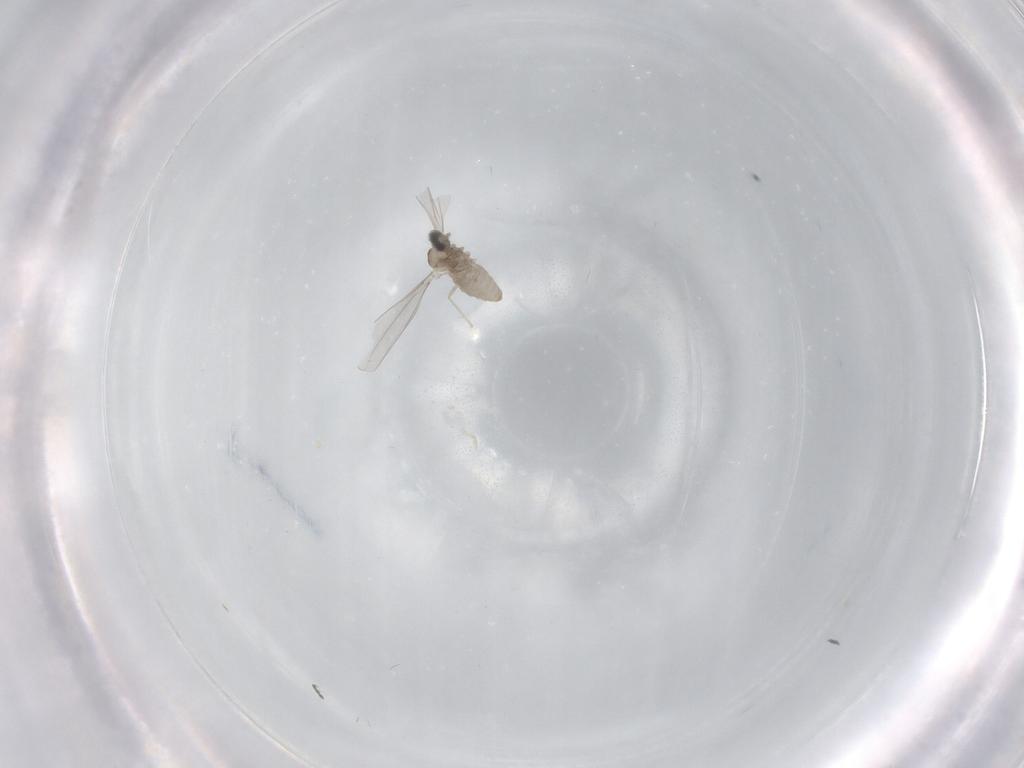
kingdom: Animalia
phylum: Arthropoda
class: Insecta
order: Diptera
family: Cecidomyiidae
